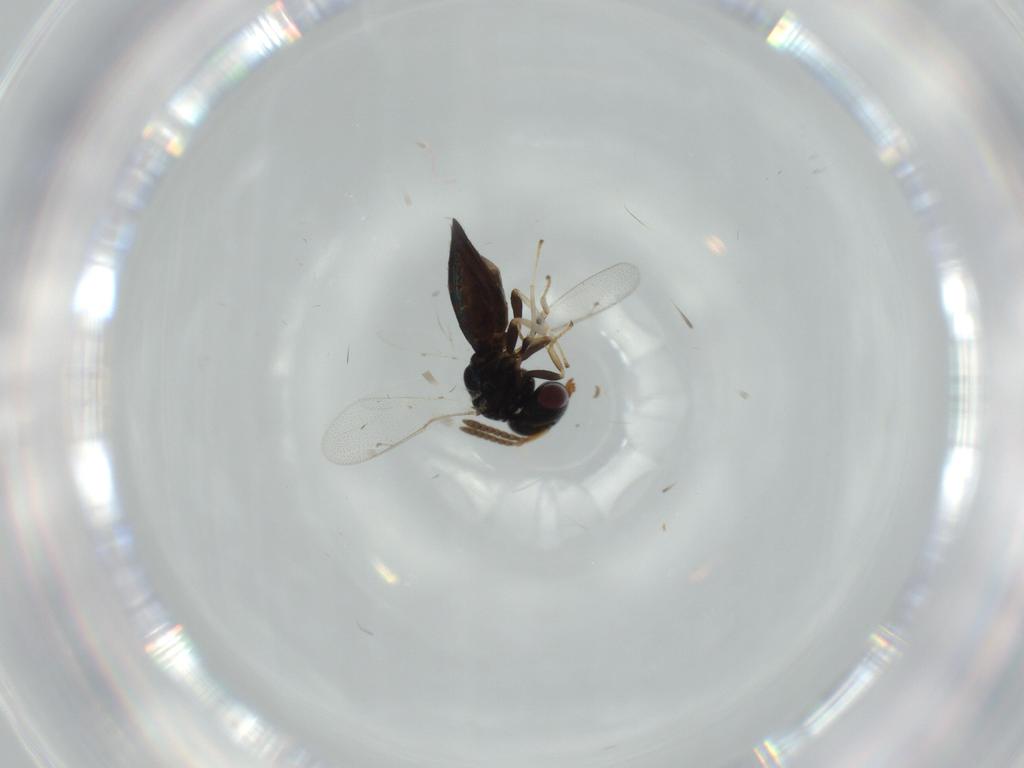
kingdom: Animalia
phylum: Arthropoda
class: Insecta
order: Hymenoptera
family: Pteromalidae
